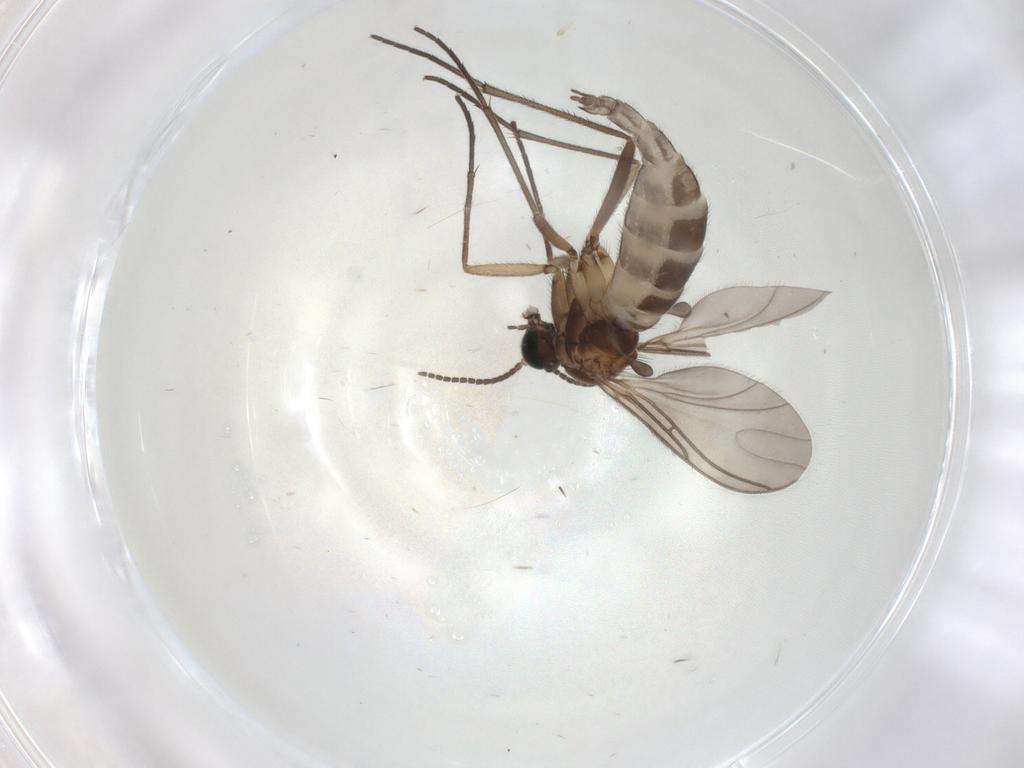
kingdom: Animalia
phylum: Arthropoda
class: Insecta
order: Diptera
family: Sciaridae
